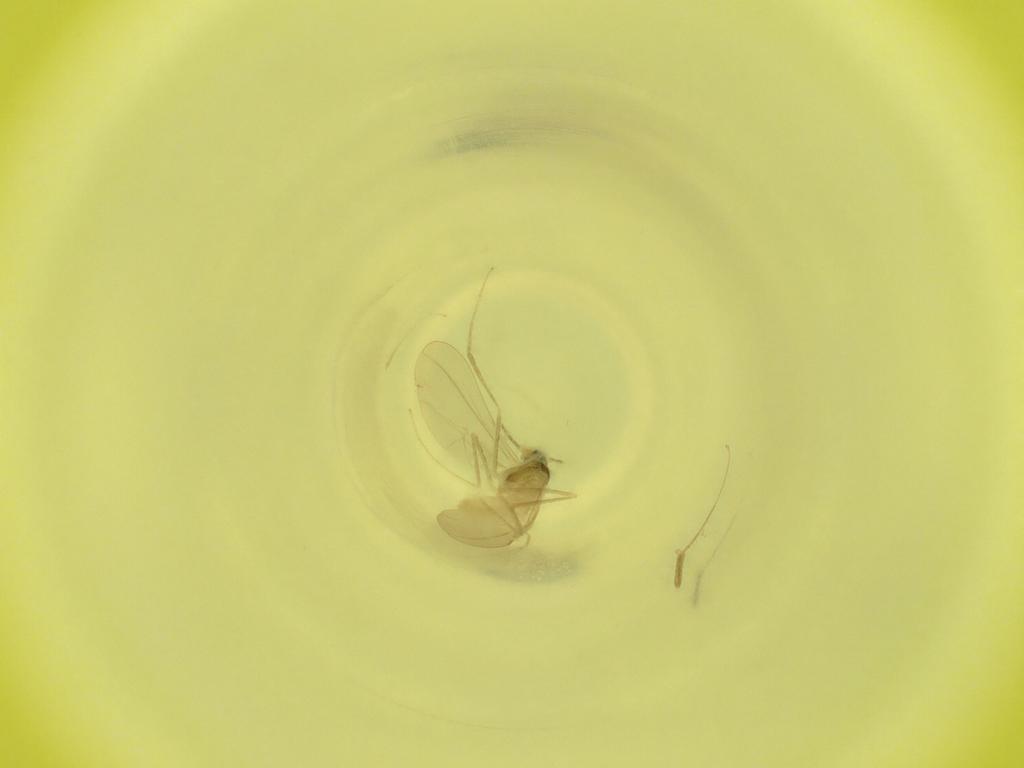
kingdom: Animalia
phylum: Arthropoda
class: Insecta
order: Diptera
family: Cecidomyiidae
